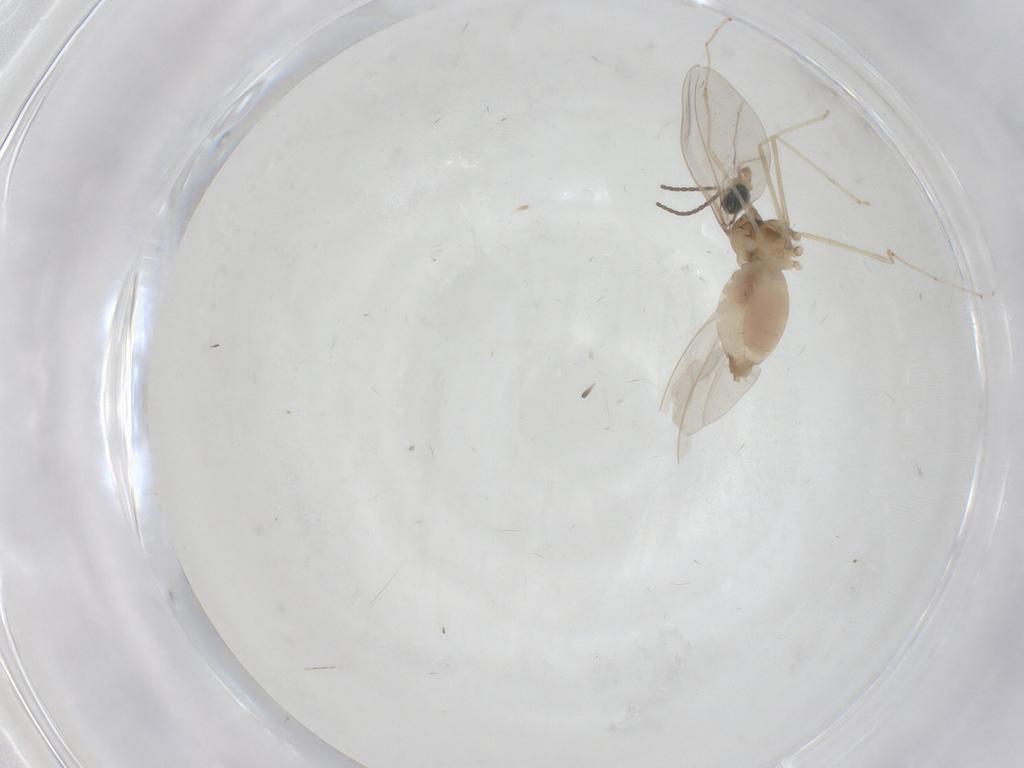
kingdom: Animalia
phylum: Arthropoda
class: Insecta
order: Diptera
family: Cecidomyiidae
